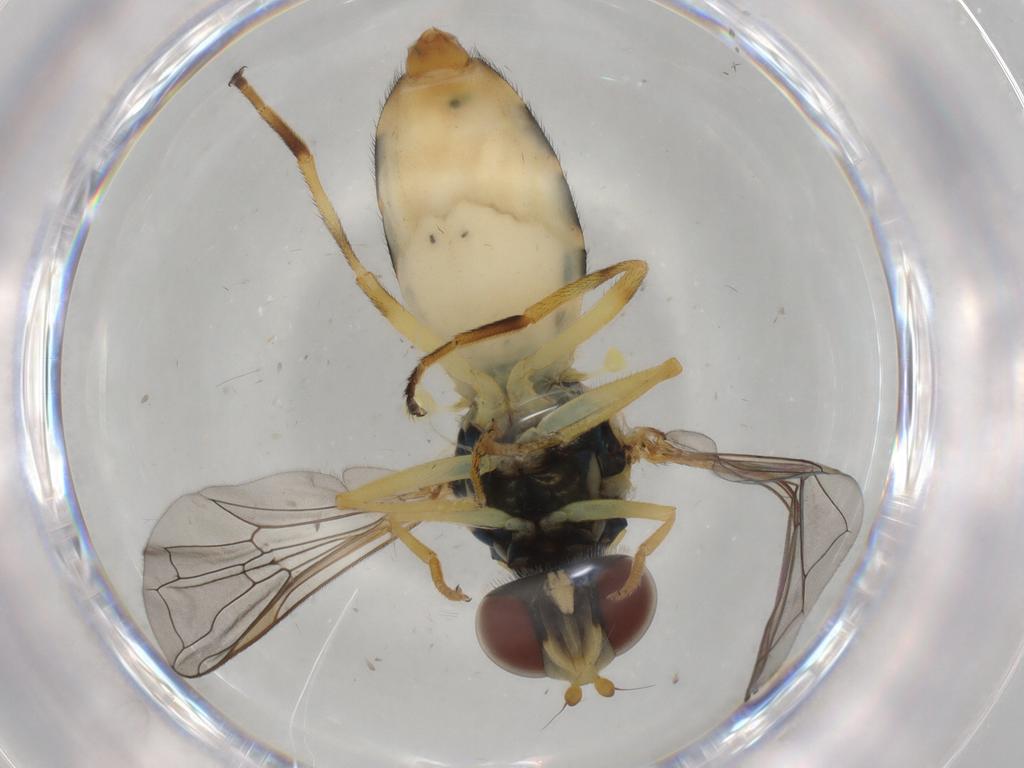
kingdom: Animalia
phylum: Arthropoda
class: Insecta
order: Diptera
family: Syrphidae
